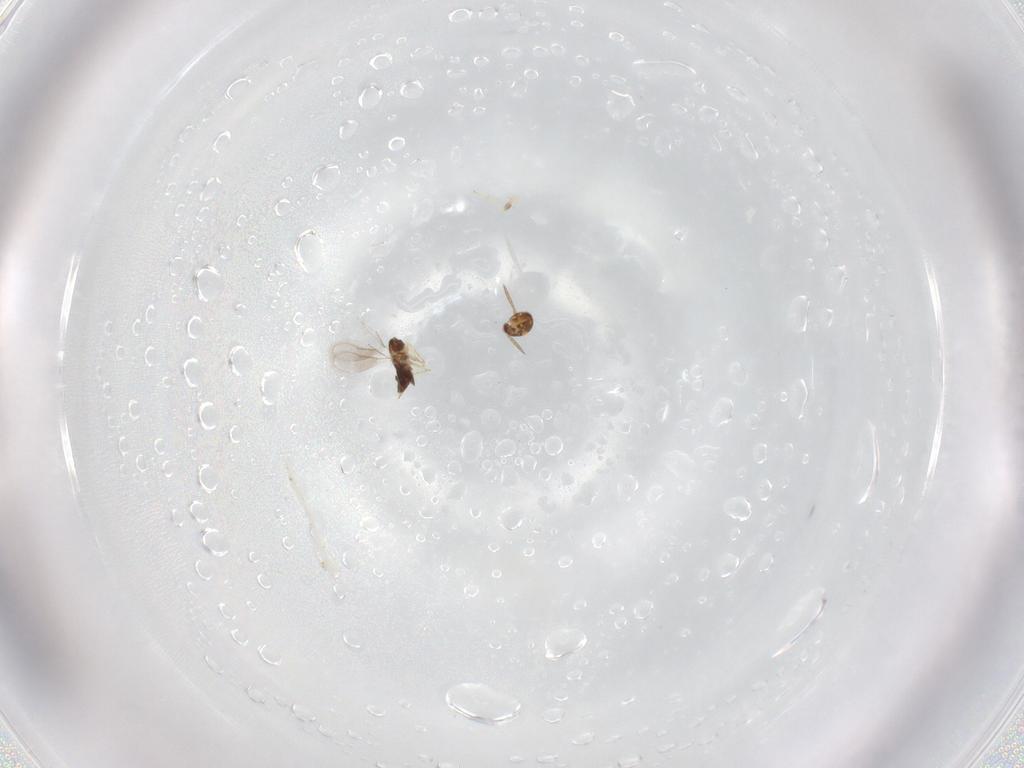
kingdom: Animalia
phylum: Arthropoda
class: Insecta
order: Hymenoptera
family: Aphelinidae
